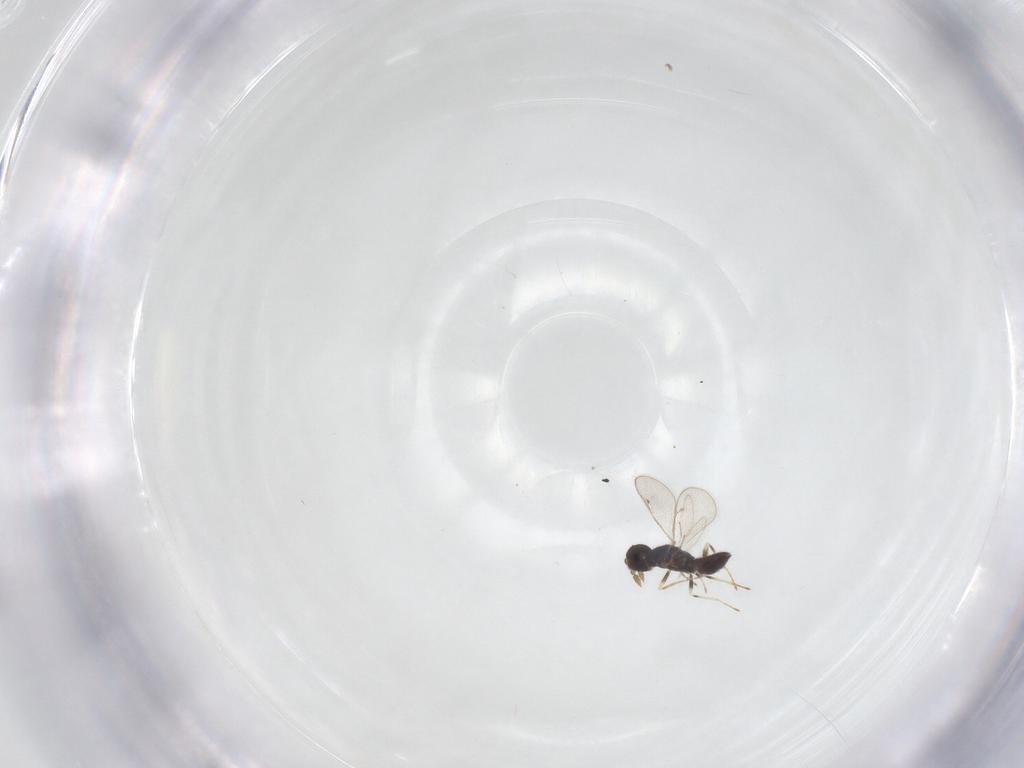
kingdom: Animalia
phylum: Arthropoda
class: Insecta
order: Hymenoptera
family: Eulophidae
